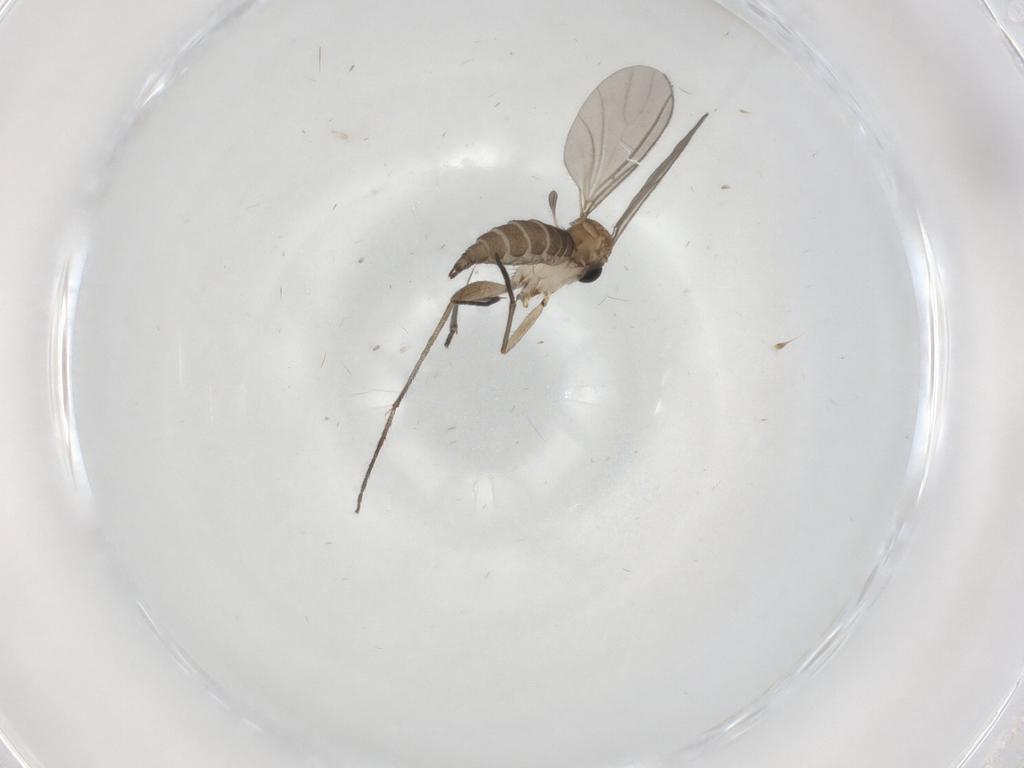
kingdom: Animalia
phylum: Arthropoda
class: Insecta
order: Diptera
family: Sciaridae
